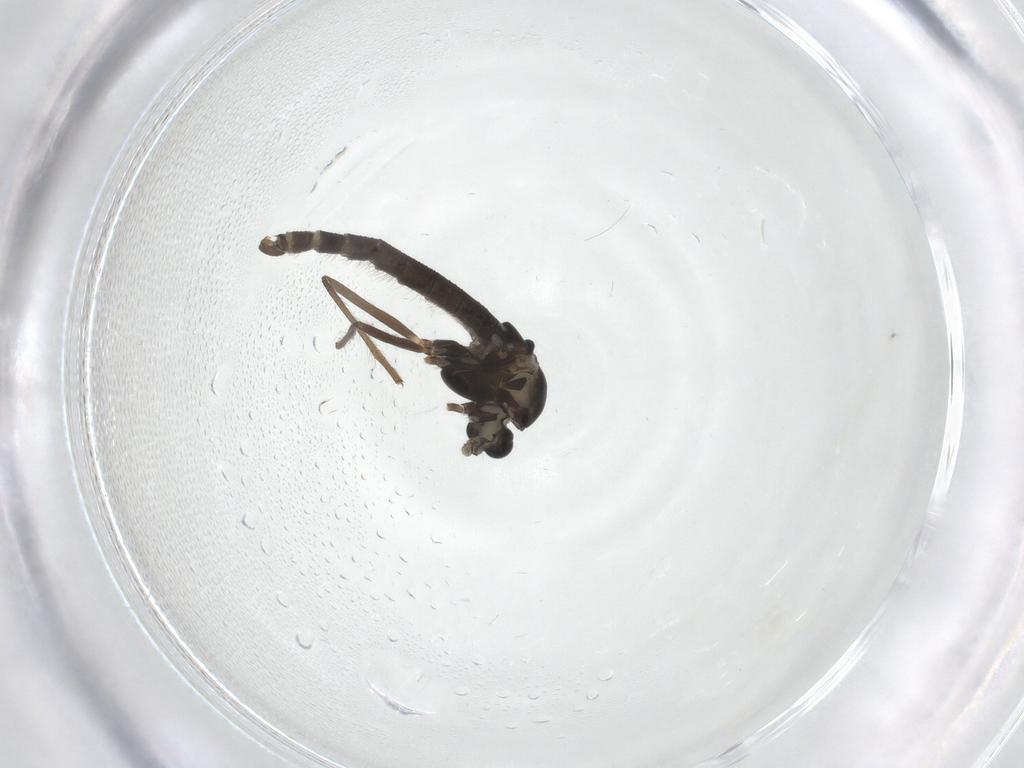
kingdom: Animalia
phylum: Arthropoda
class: Insecta
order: Diptera
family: Chironomidae
